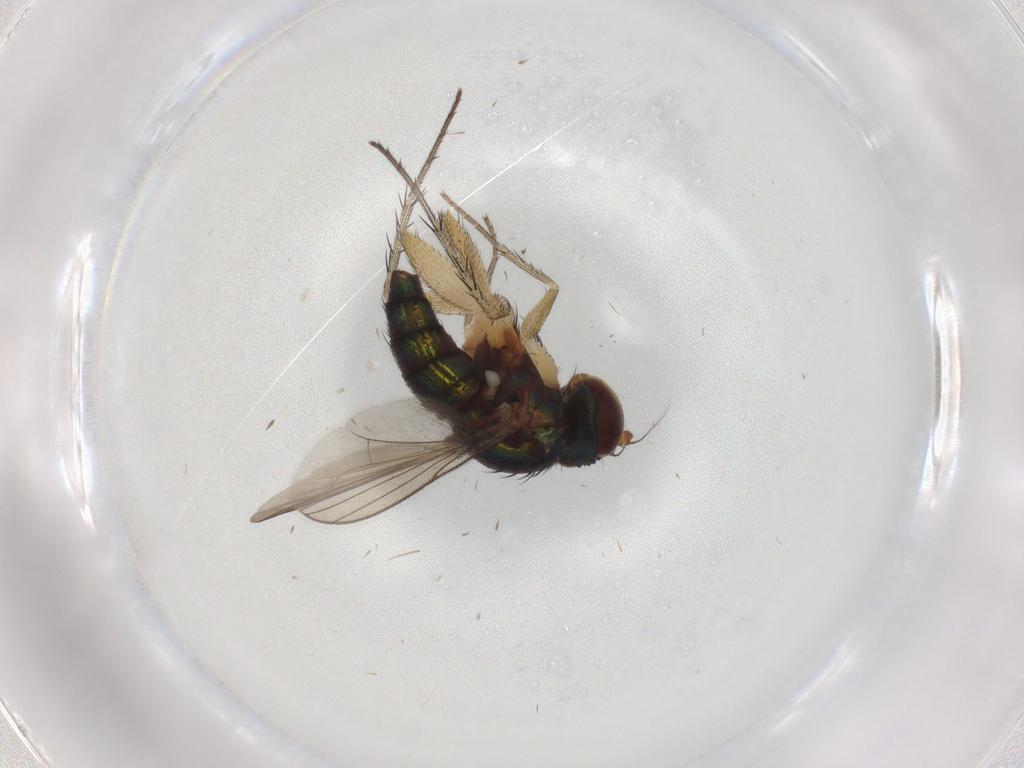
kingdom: Animalia
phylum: Arthropoda
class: Insecta
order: Diptera
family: Dolichopodidae
